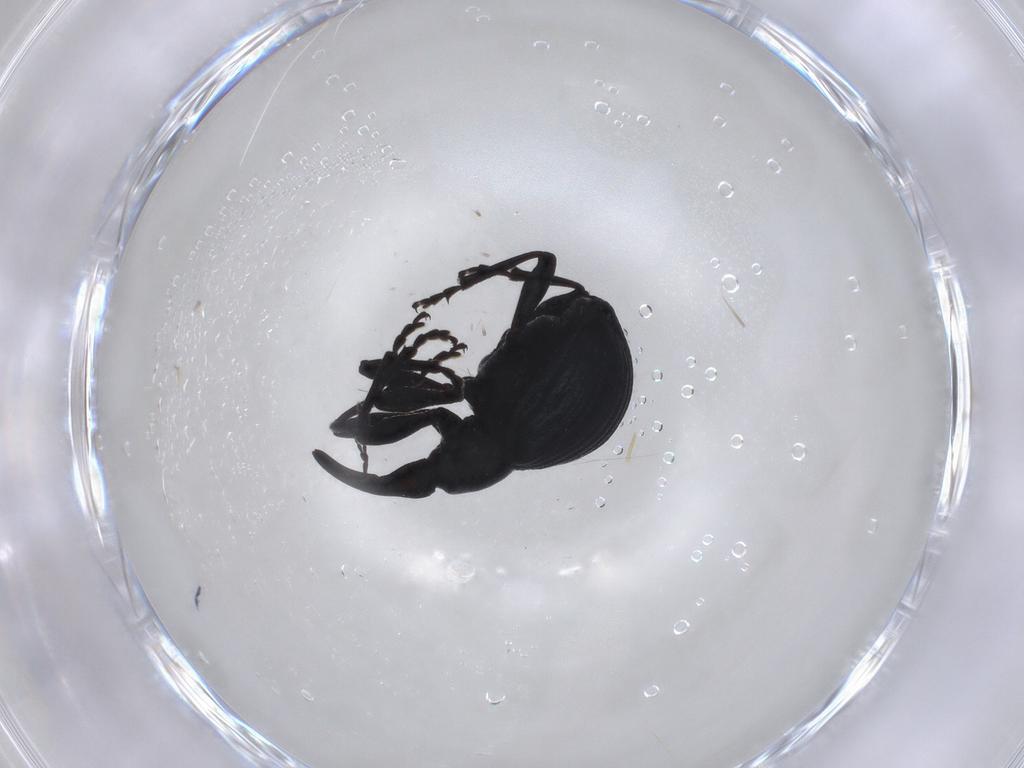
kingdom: Animalia
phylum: Arthropoda
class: Insecta
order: Coleoptera
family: Apionidae
